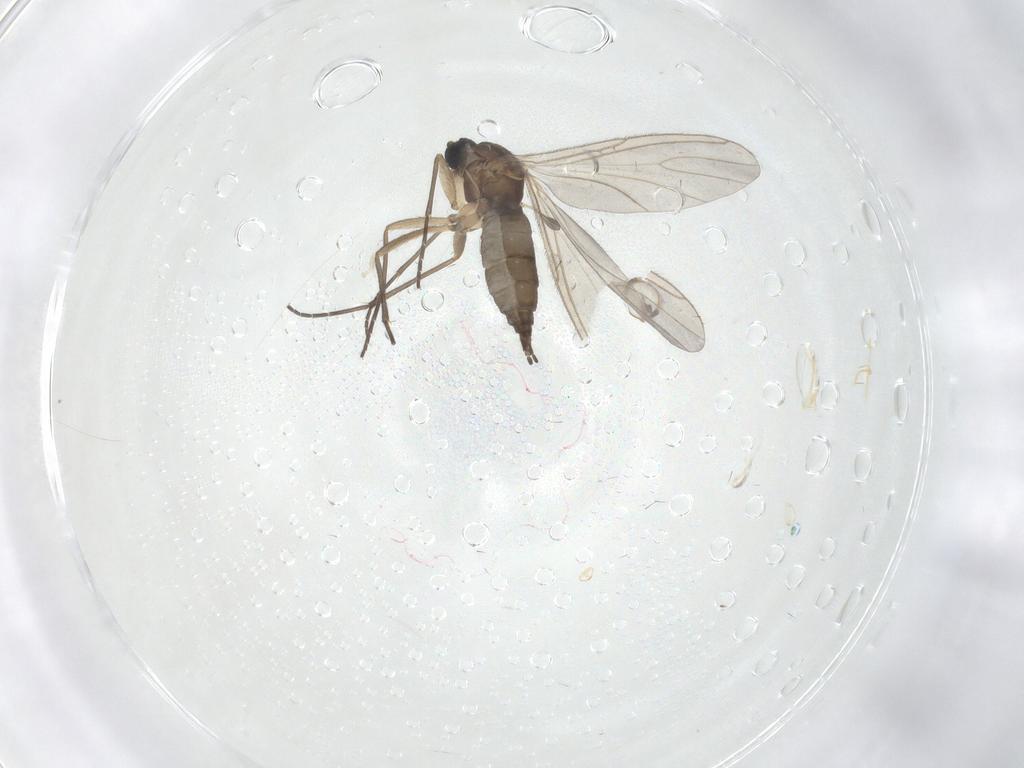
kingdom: Animalia
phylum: Arthropoda
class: Insecta
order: Diptera
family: Sciaridae
